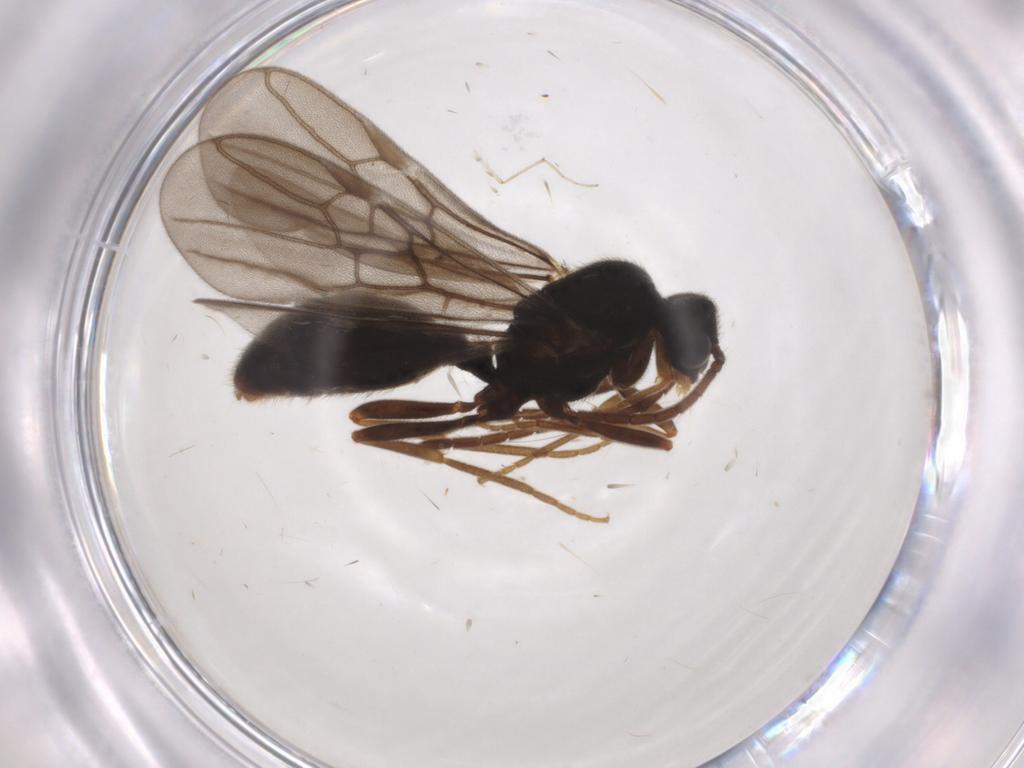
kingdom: Animalia
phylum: Arthropoda
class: Insecta
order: Hymenoptera
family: Formicidae
